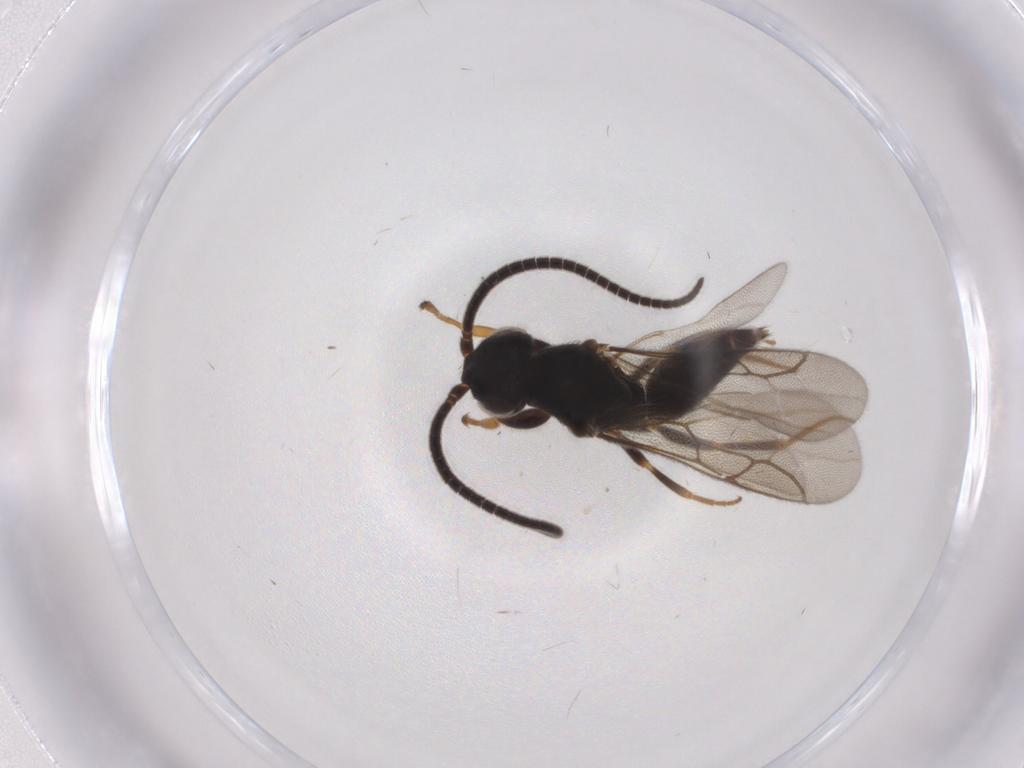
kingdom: Animalia
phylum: Arthropoda
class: Insecta
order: Hymenoptera
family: Sclerogibbidae
